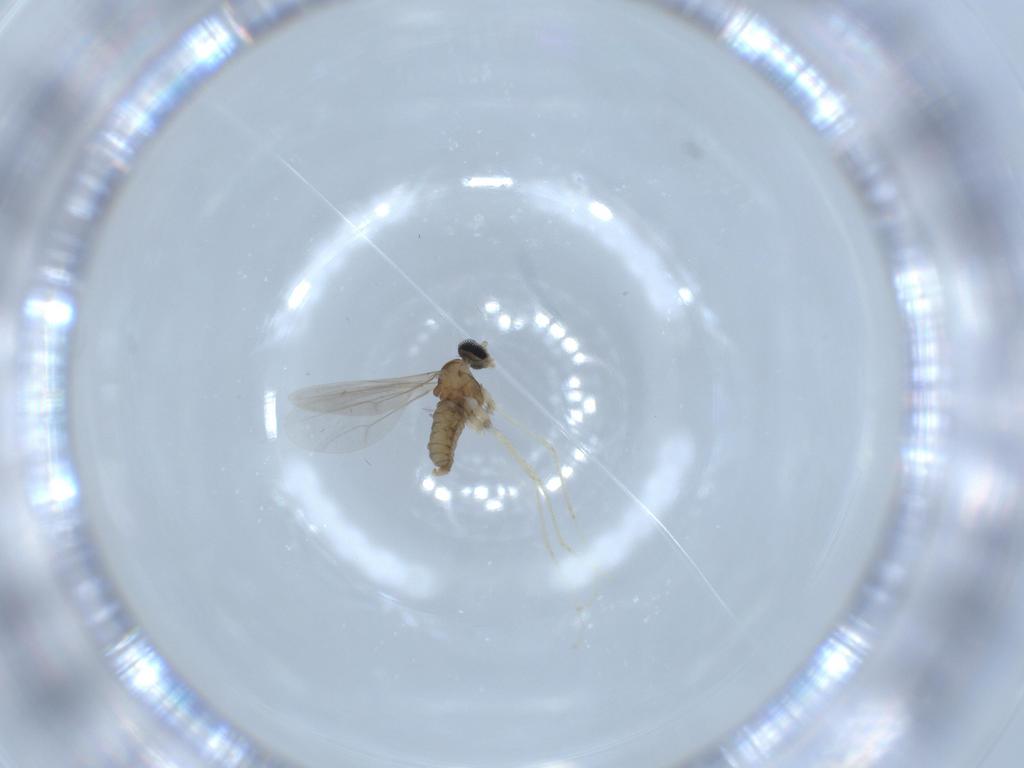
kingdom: Animalia
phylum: Arthropoda
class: Insecta
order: Diptera
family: Cecidomyiidae
